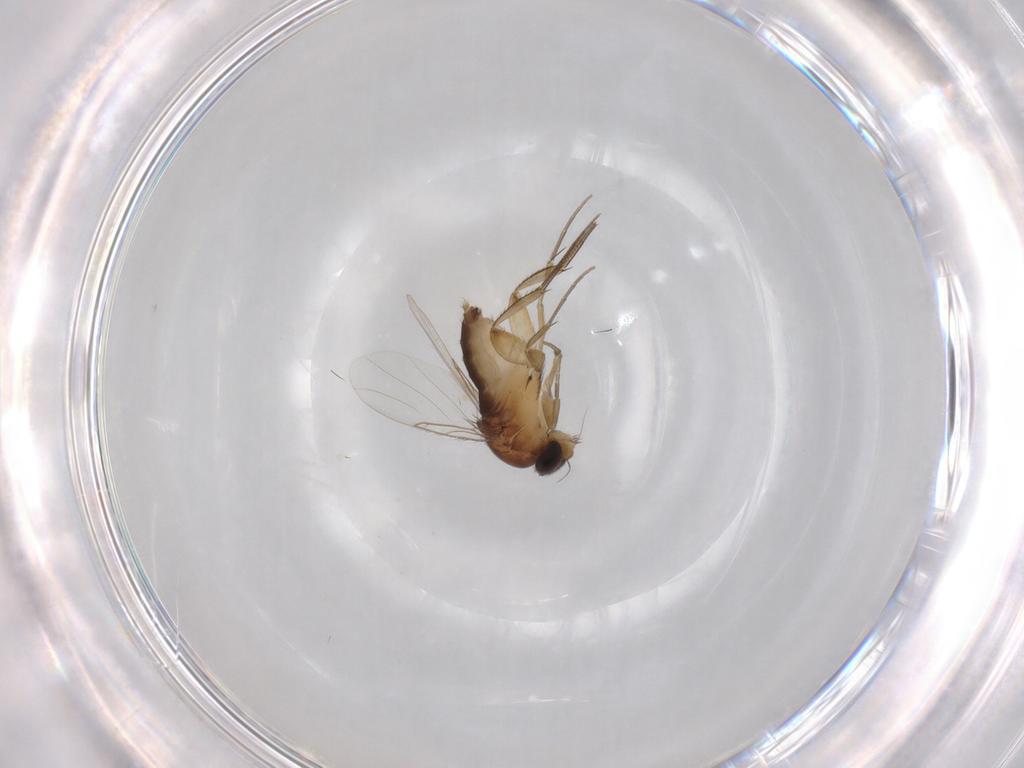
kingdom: Animalia
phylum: Arthropoda
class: Insecta
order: Diptera
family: Phoridae
